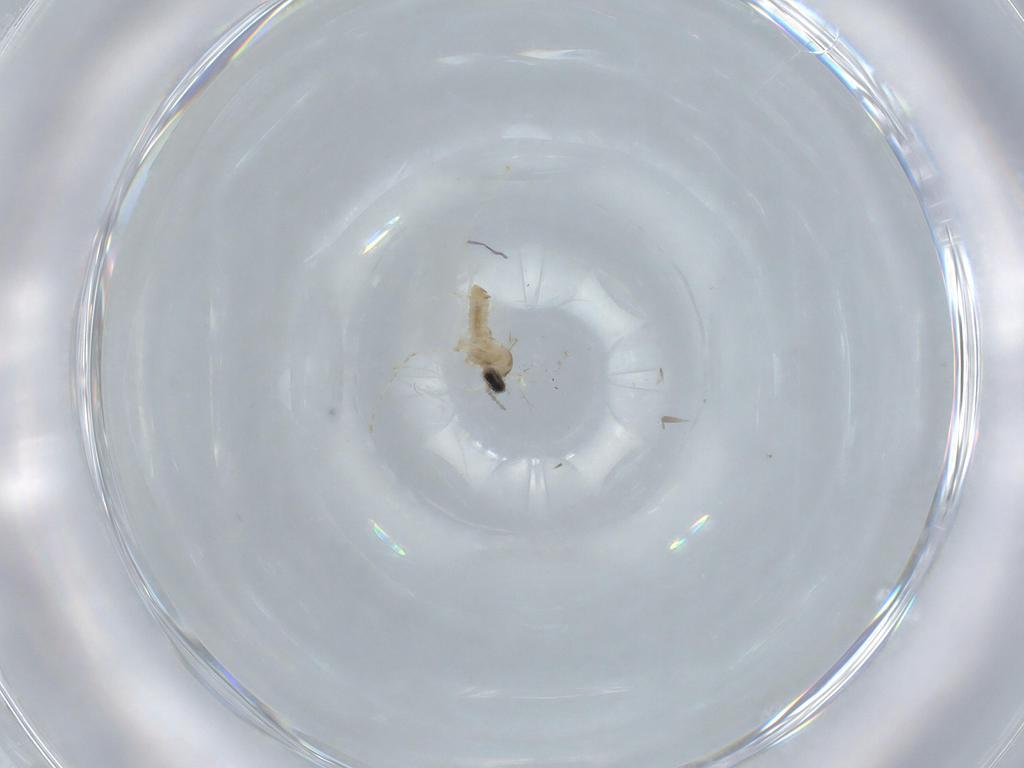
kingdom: Animalia
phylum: Arthropoda
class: Insecta
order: Diptera
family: Cecidomyiidae
